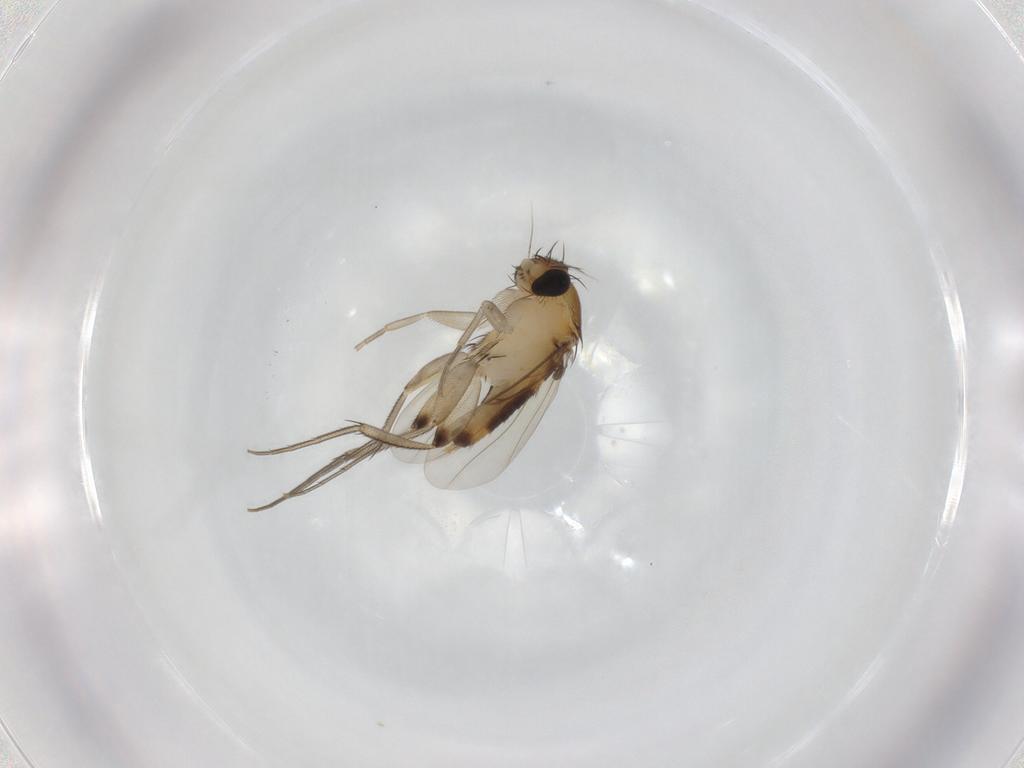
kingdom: Animalia
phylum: Arthropoda
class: Insecta
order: Diptera
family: Phoridae
